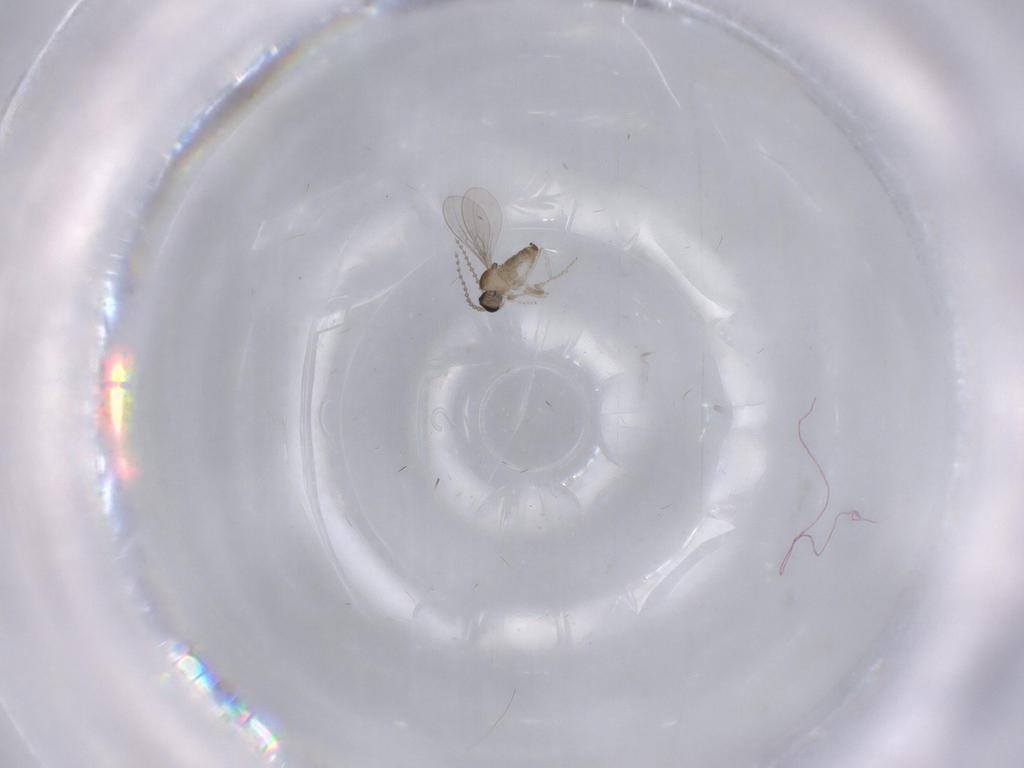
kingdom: Animalia
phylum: Arthropoda
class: Insecta
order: Diptera
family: Cecidomyiidae
